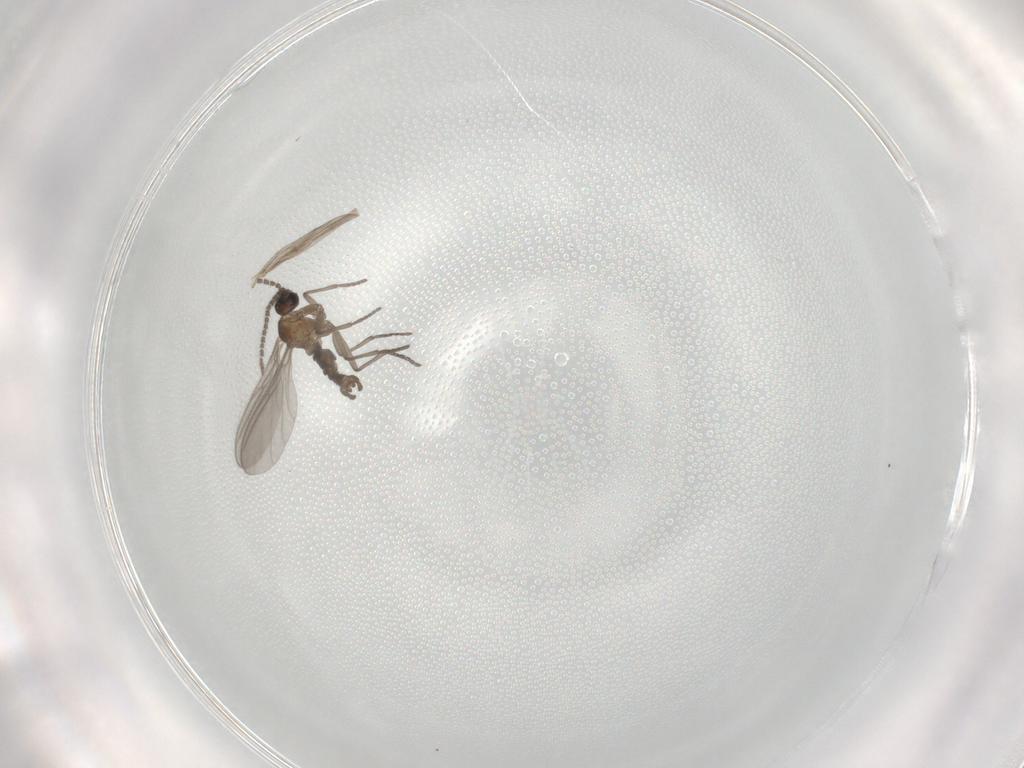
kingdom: Animalia
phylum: Arthropoda
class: Insecta
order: Diptera
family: Sciaridae
